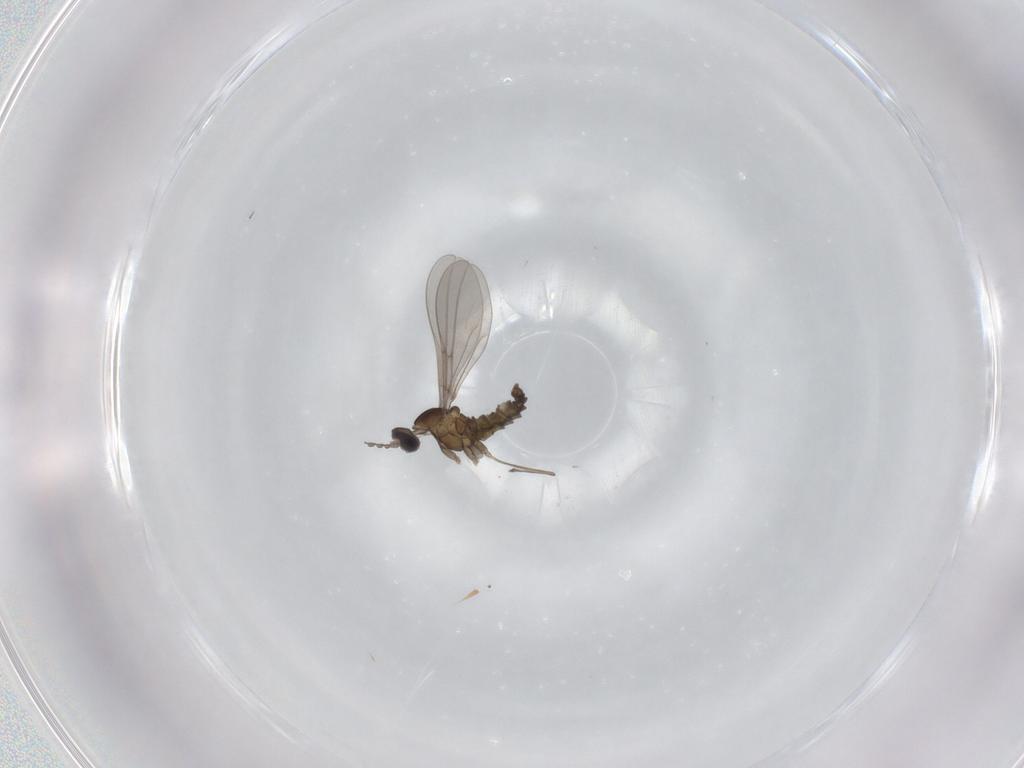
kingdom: Animalia
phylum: Arthropoda
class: Insecta
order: Diptera
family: Cecidomyiidae
